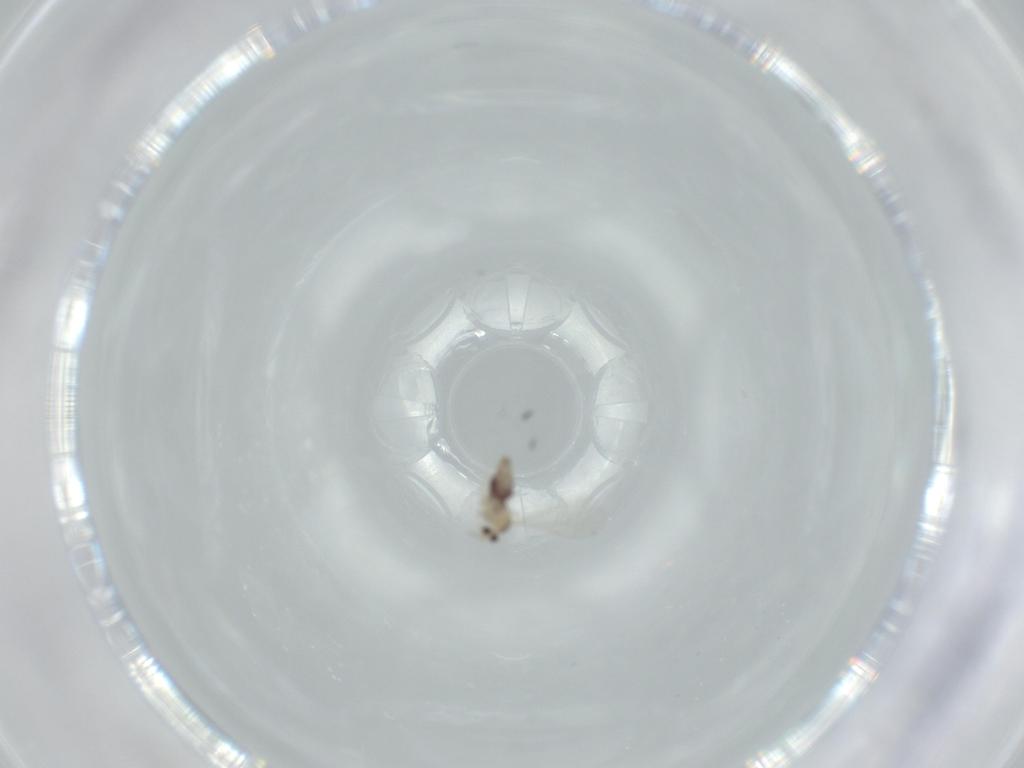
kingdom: Animalia
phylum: Arthropoda
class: Insecta
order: Diptera
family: Cecidomyiidae
